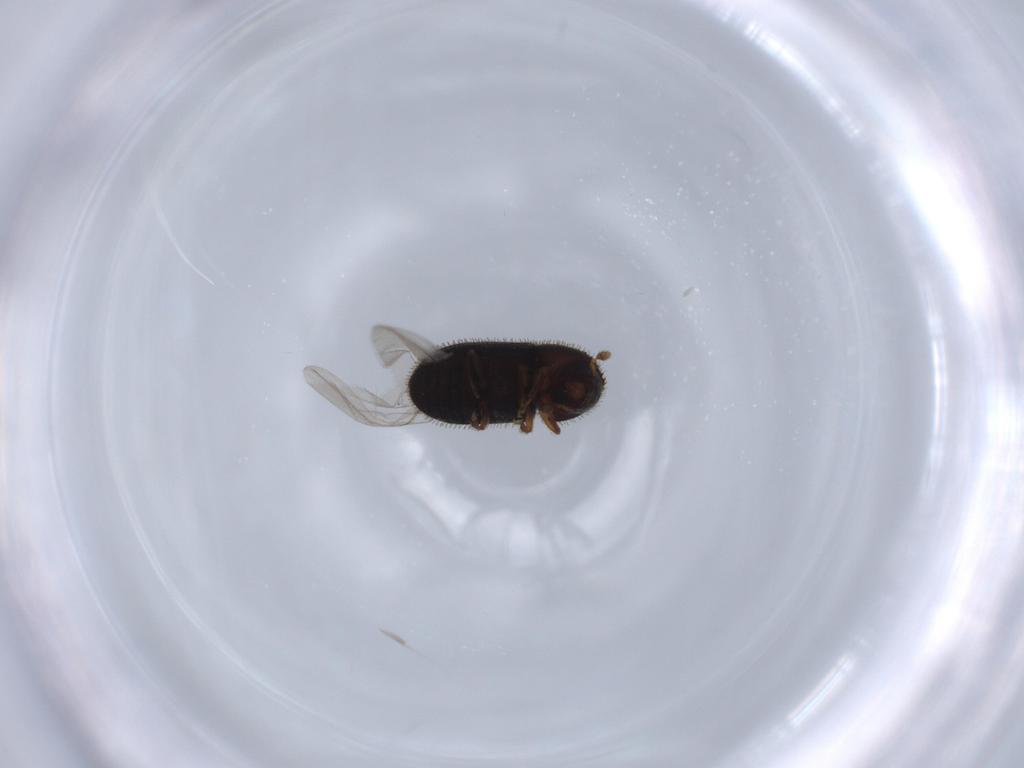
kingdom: Animalia
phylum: Arthropoda
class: Insecta
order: Coleoptera
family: Curculionidae
